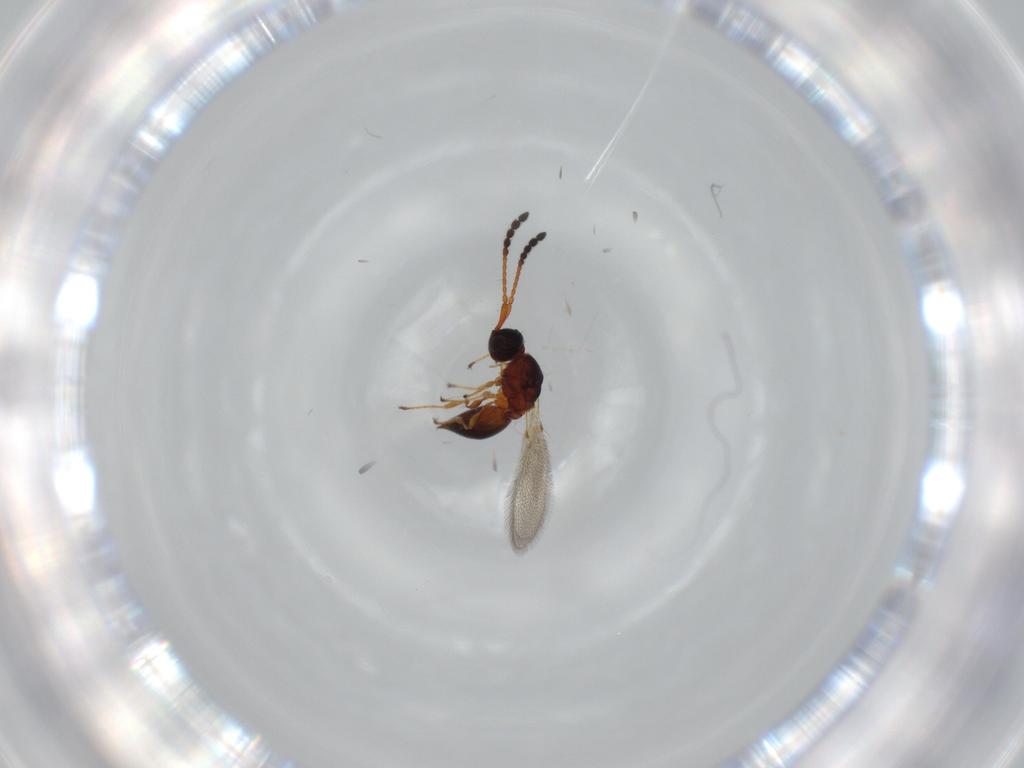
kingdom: Animalia
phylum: Arthropoda
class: Insecta
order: Hymenoptera
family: Diapriidae
